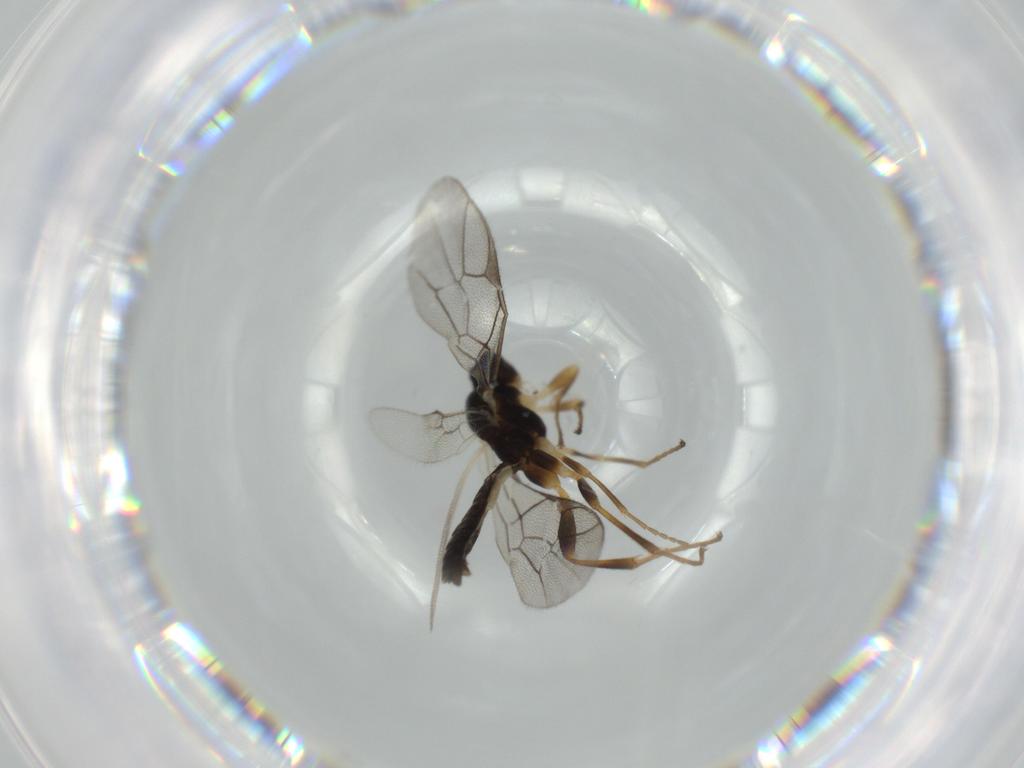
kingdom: Animalia
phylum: Arthropoda
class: Insecta
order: Hymenoptera
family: Ichneumonidae
